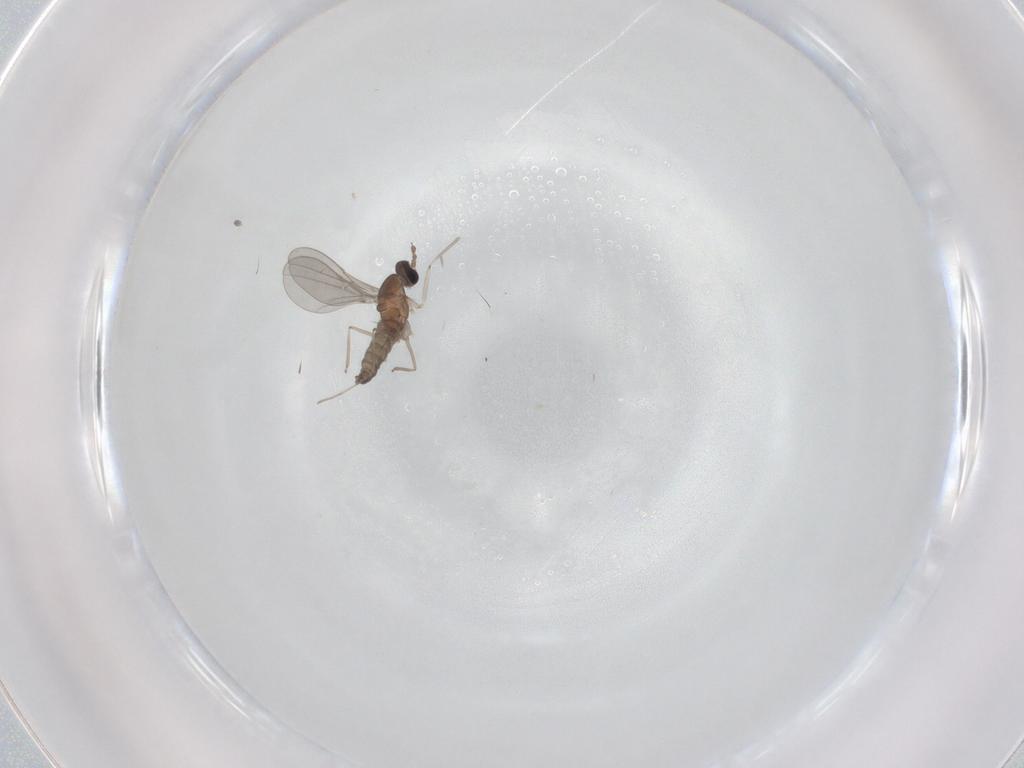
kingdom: Animalia
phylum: Arthropoda
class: Insecta
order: Diptera
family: Cecidomyiidae
